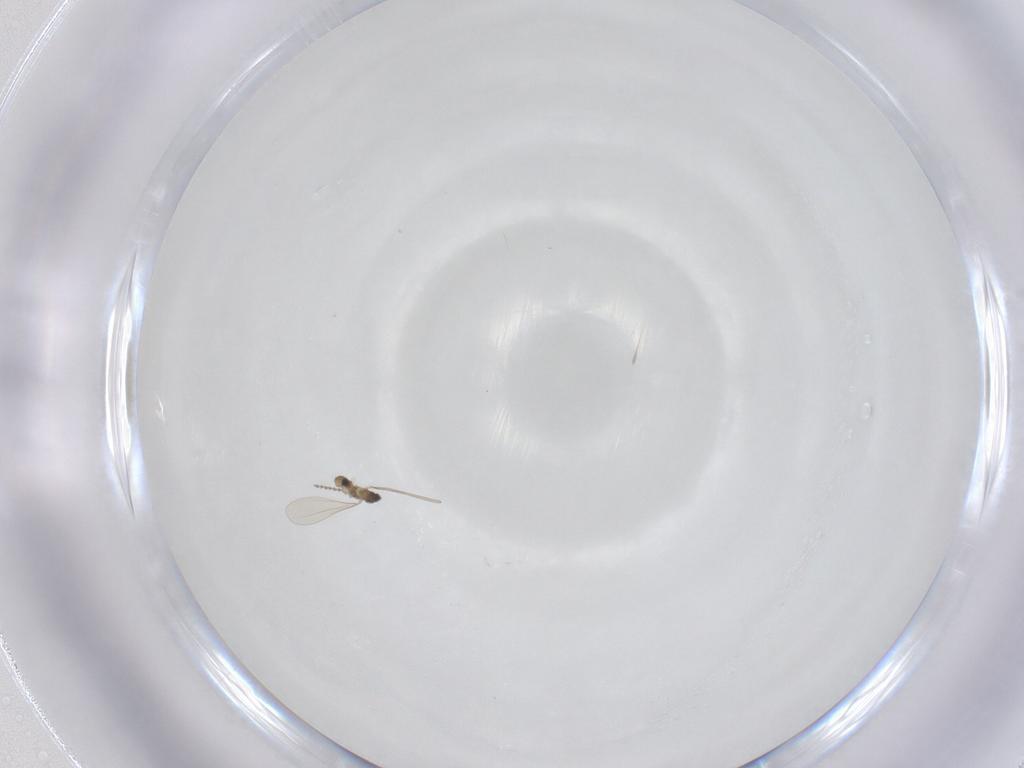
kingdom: Animalia
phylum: Arthropoda
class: Insecta
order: Diptera
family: Cecidomyiidae
